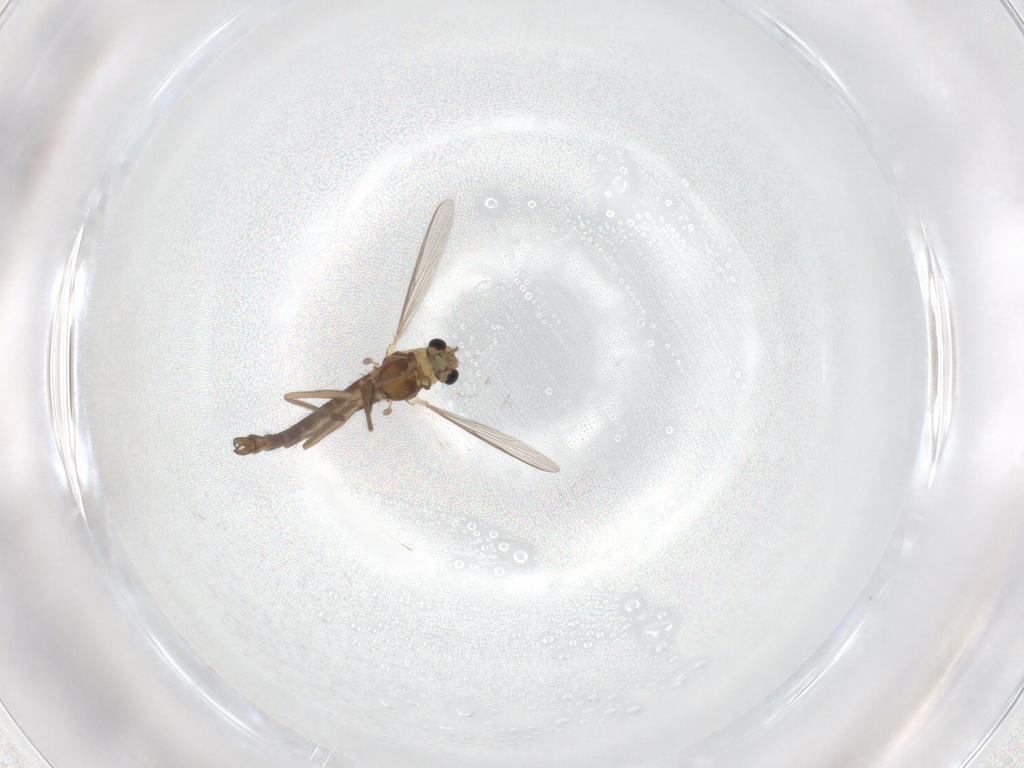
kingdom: Animalia
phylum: Arthropoda
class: Insecta
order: Diptera
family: Chironomidae
